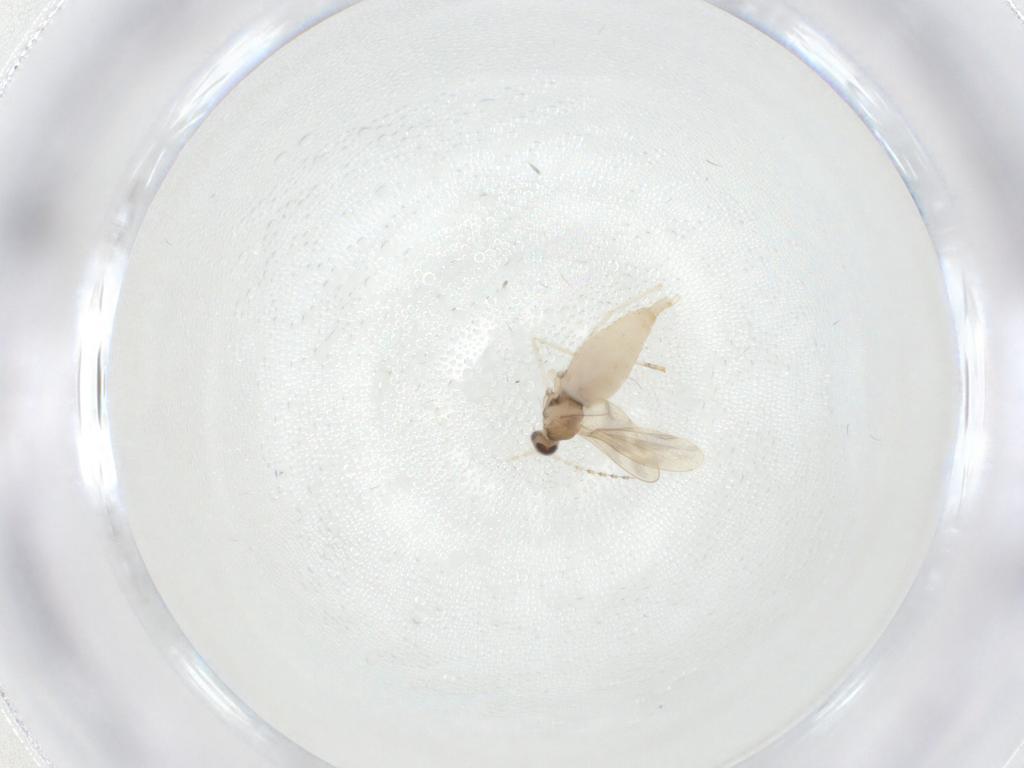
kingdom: Animalia
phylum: Arthropoda
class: Insecta
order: Diptera
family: Cecidomyiidae
